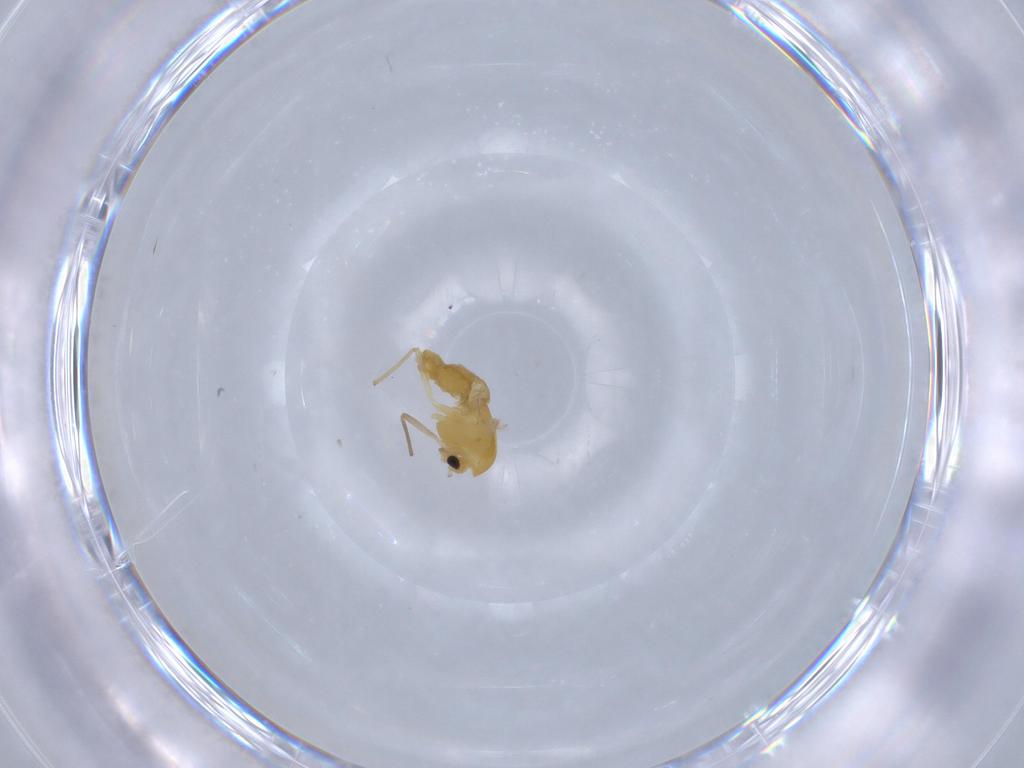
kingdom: Animalia
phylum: Arthropoda
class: Insecta
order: Diptera
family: Chironomidae
